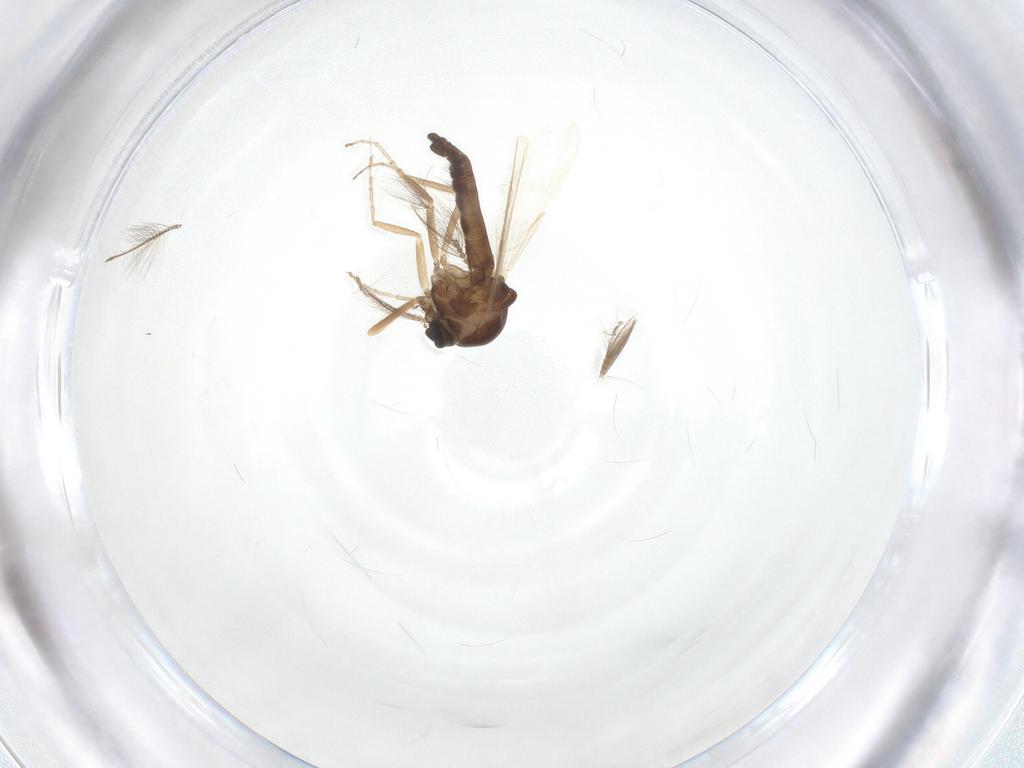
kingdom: Animalia
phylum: Arthropoda
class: Insecta
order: Diptera
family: Ceratopogonidae
